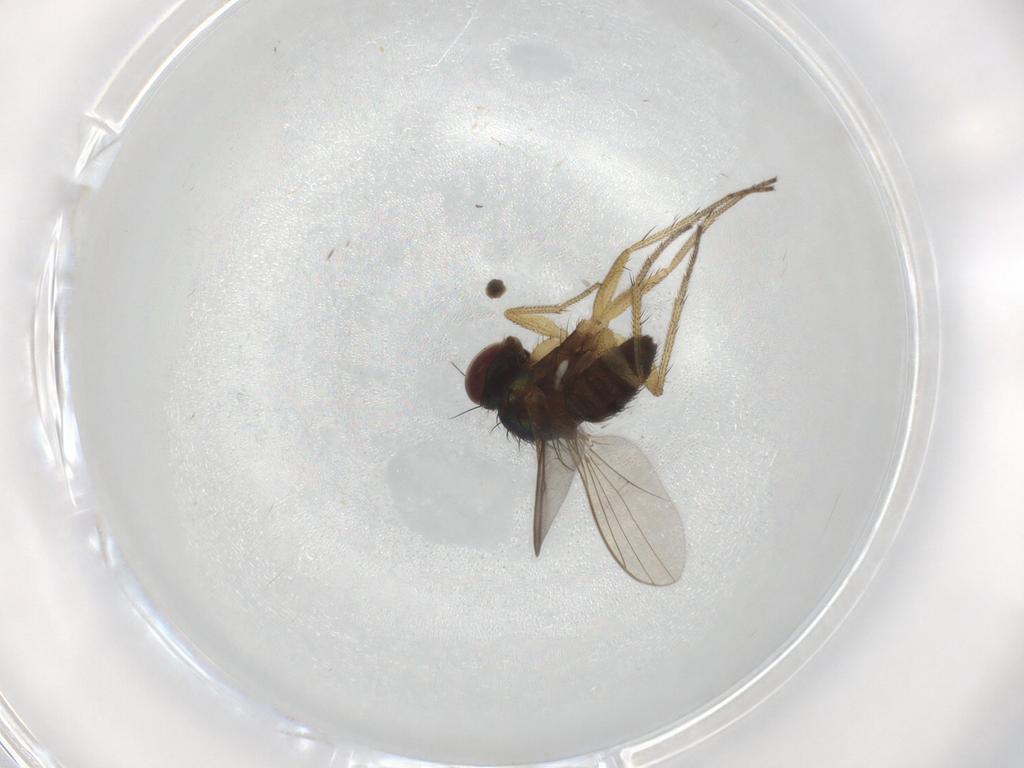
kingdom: Animalia
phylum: Arthropoda
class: Insecta
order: Diptera
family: Dolichopodidae
